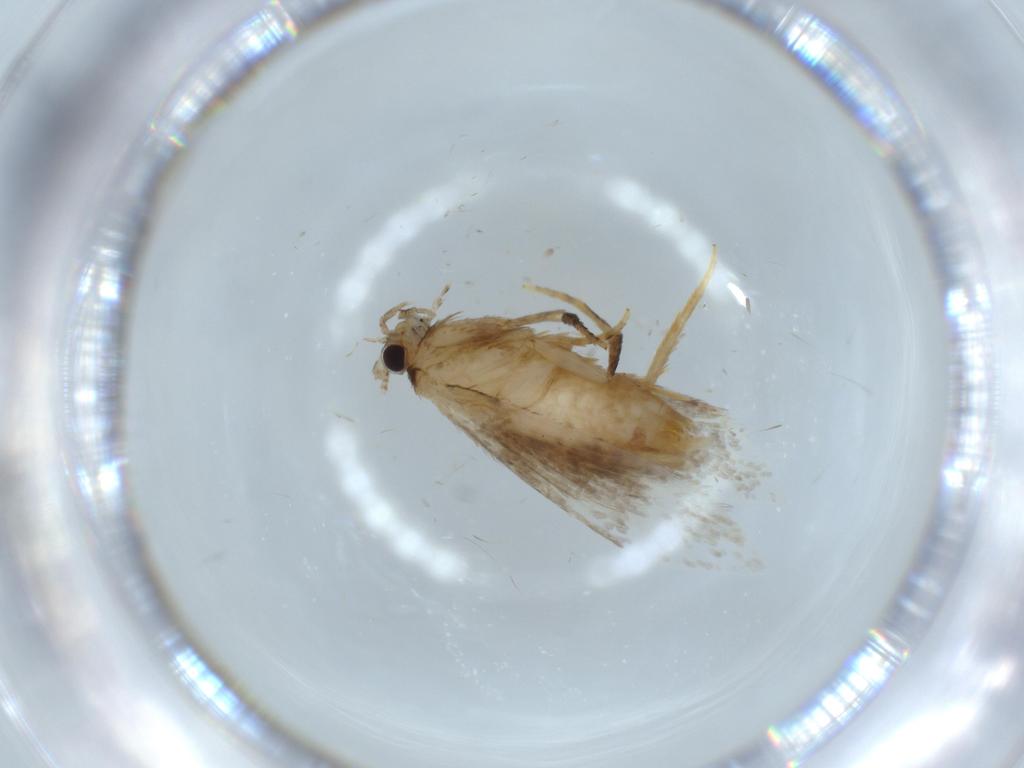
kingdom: Animalia
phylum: Arthropoda
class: Insecta
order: Lepidoptera
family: Tineidae
